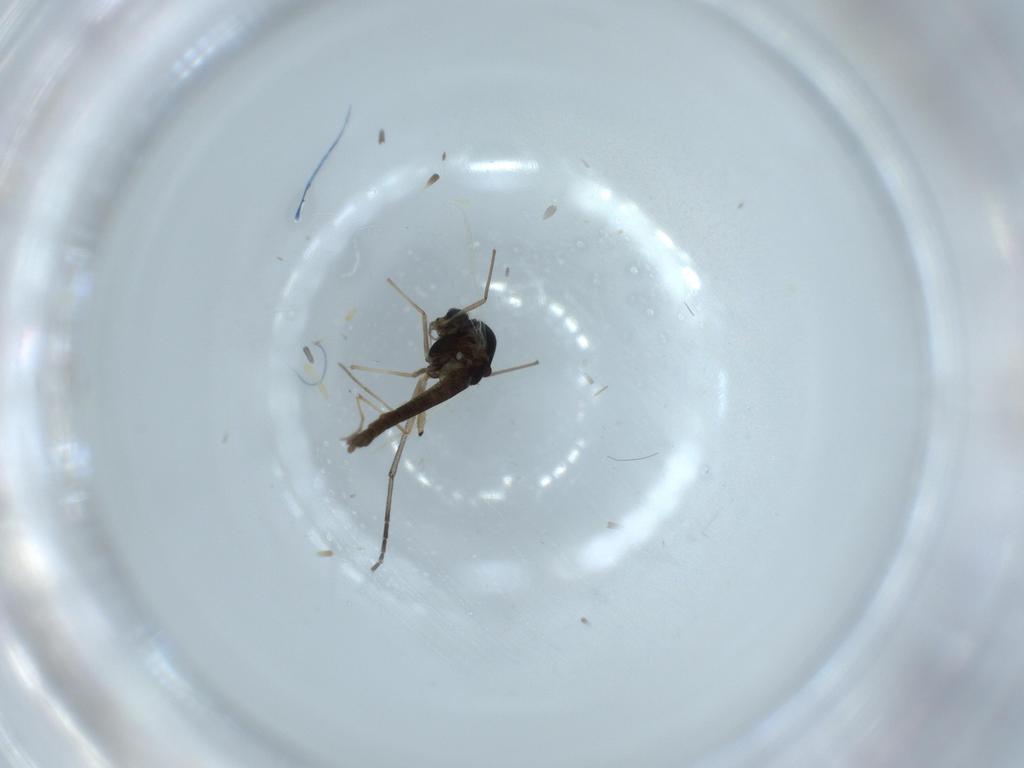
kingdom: Animalia
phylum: Arthropoda
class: Insecta
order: Diptera
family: Chironomidae
